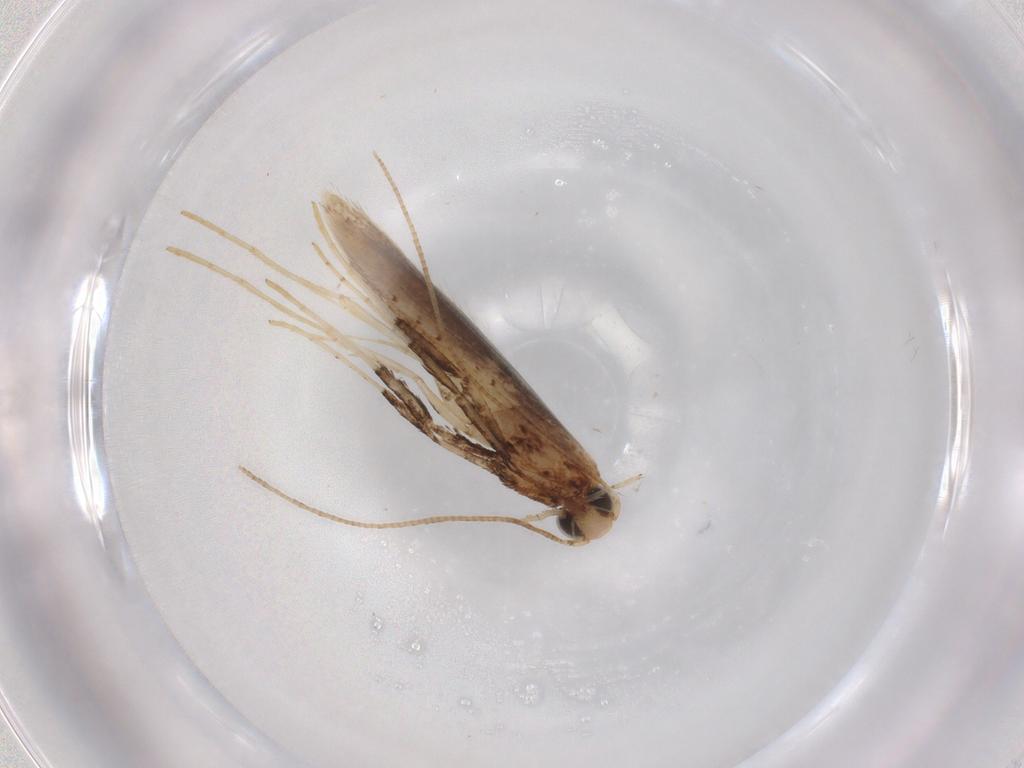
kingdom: Animalia
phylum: Arthropoda
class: Insecta
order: Lepidoptera
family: Gracillariidae
